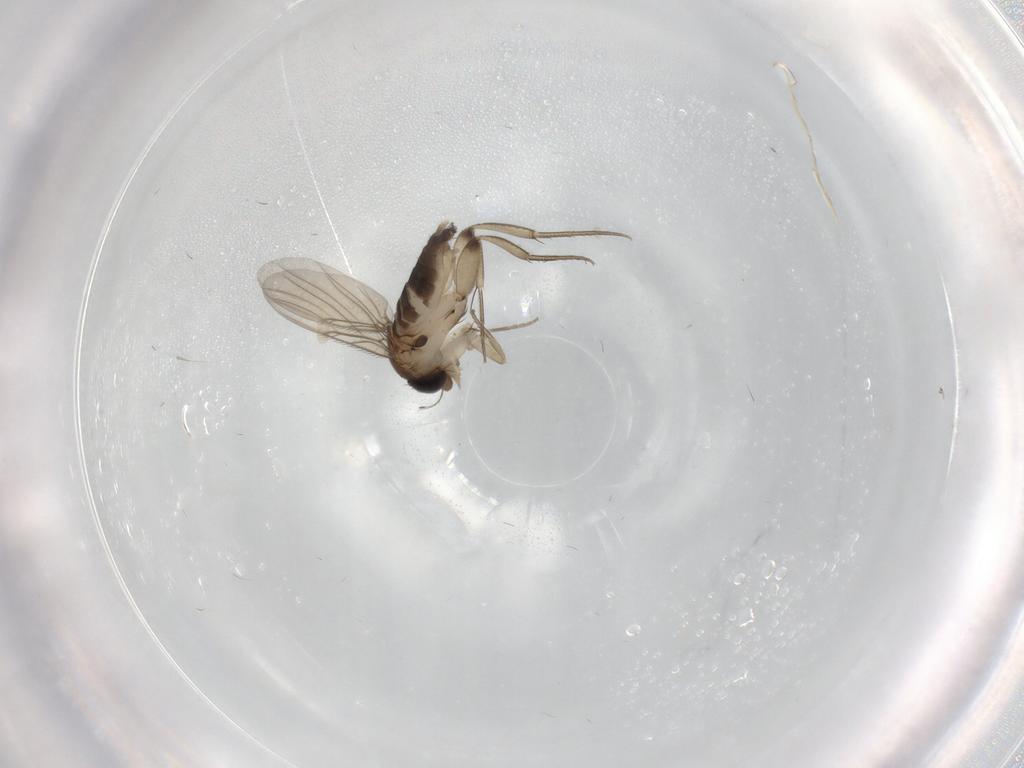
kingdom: Animalia
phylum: Arthropoda
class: Insecta
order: Diptera
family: Phoridae
